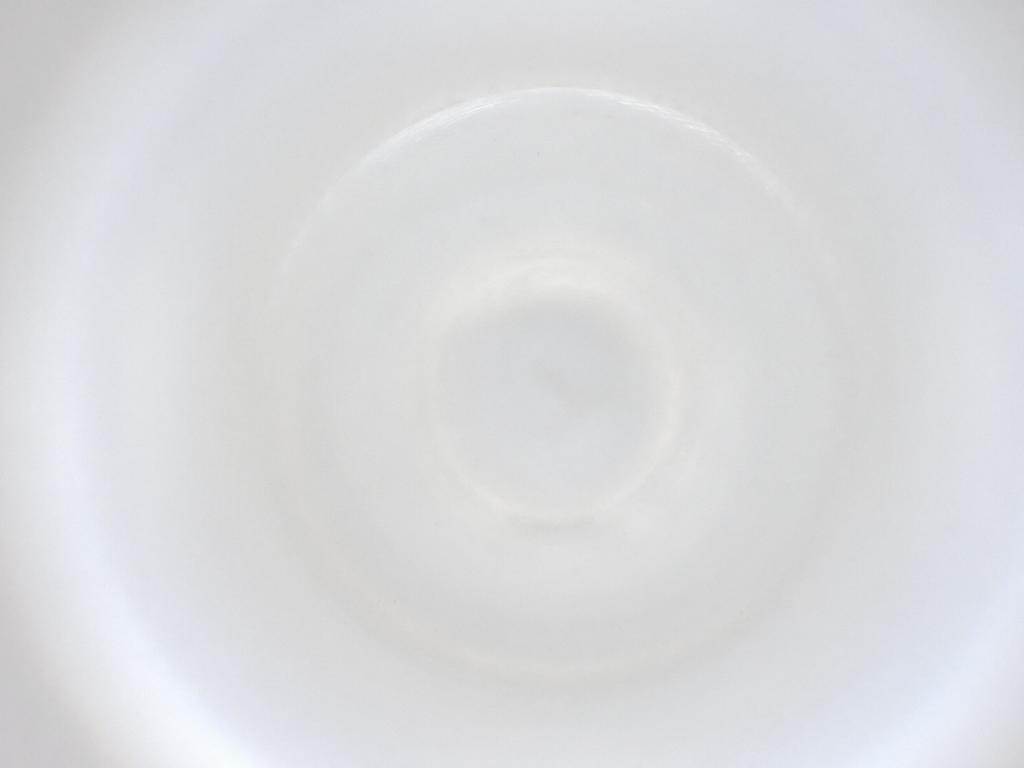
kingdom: Animalia
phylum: Arthropoda
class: Insecta
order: Diptera
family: Cecidomyiidae
